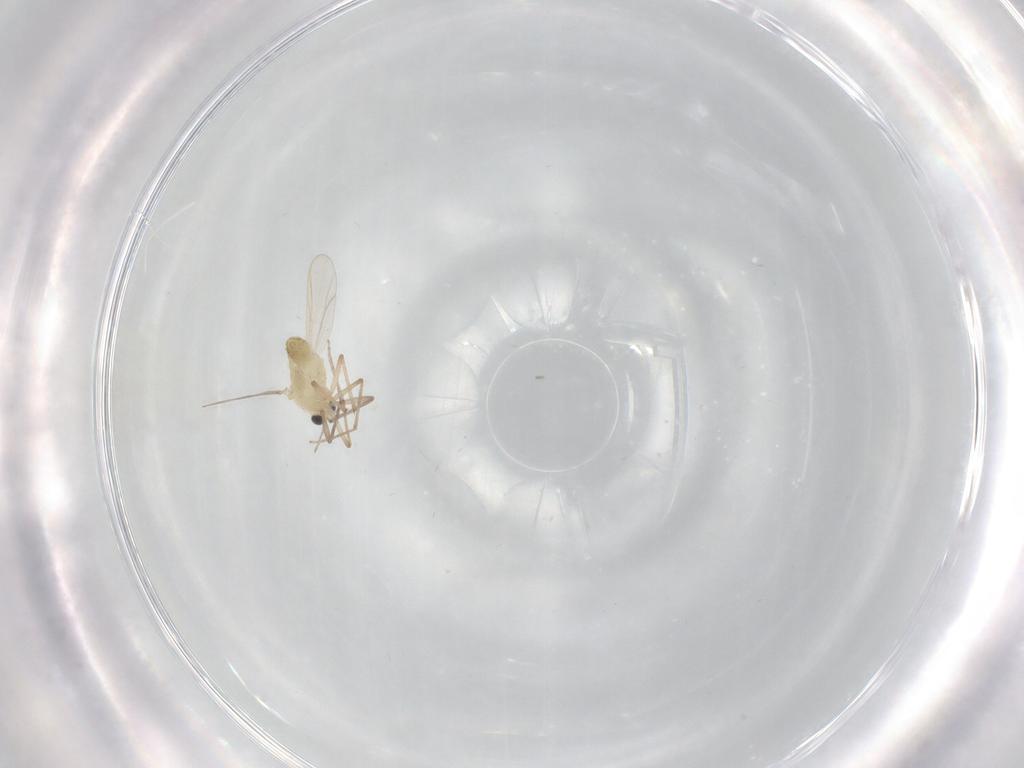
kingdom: Animalia
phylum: Arthropoda
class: Insecta
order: Diptera
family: Chironomidae
